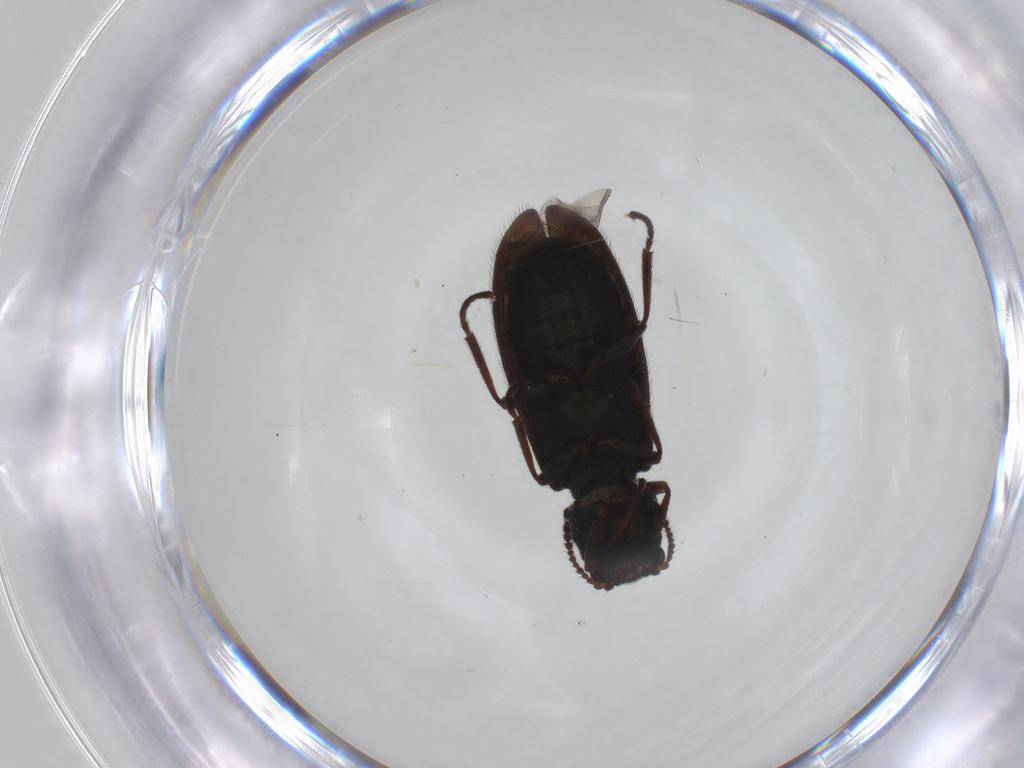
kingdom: Animalia
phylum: Arthropoda
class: Insecta
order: Coleoptera
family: Melyridae
